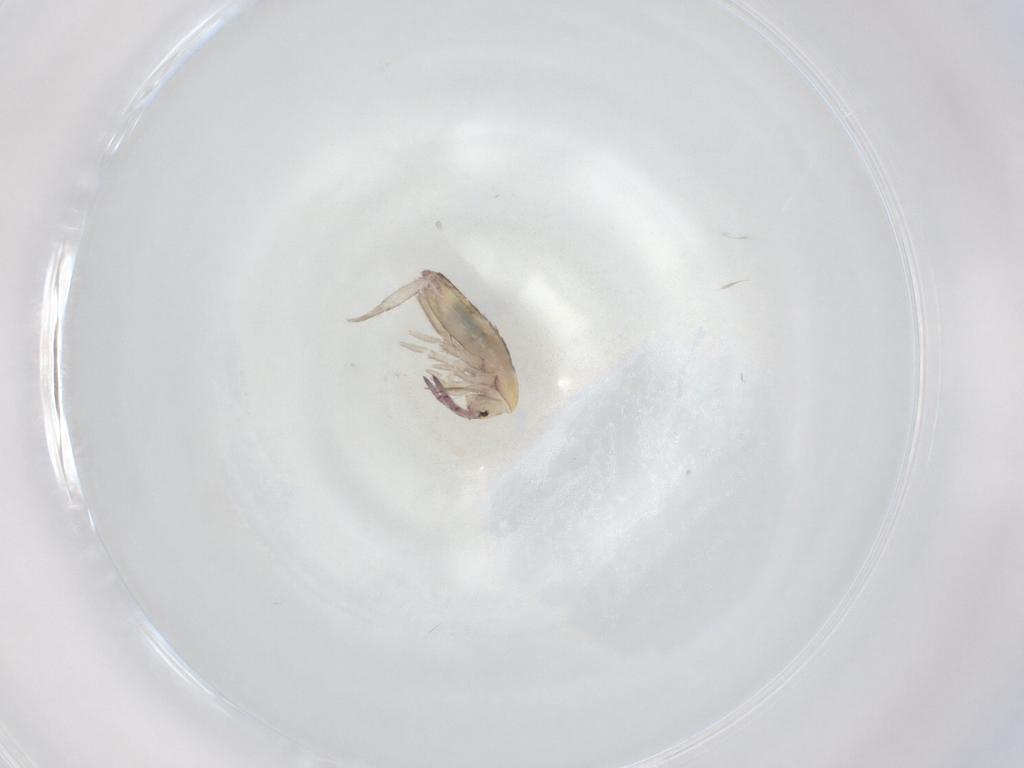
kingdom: Animalia
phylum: Arthropoda
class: Collembola
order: Entomobryomorpha
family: Entomobryidae
